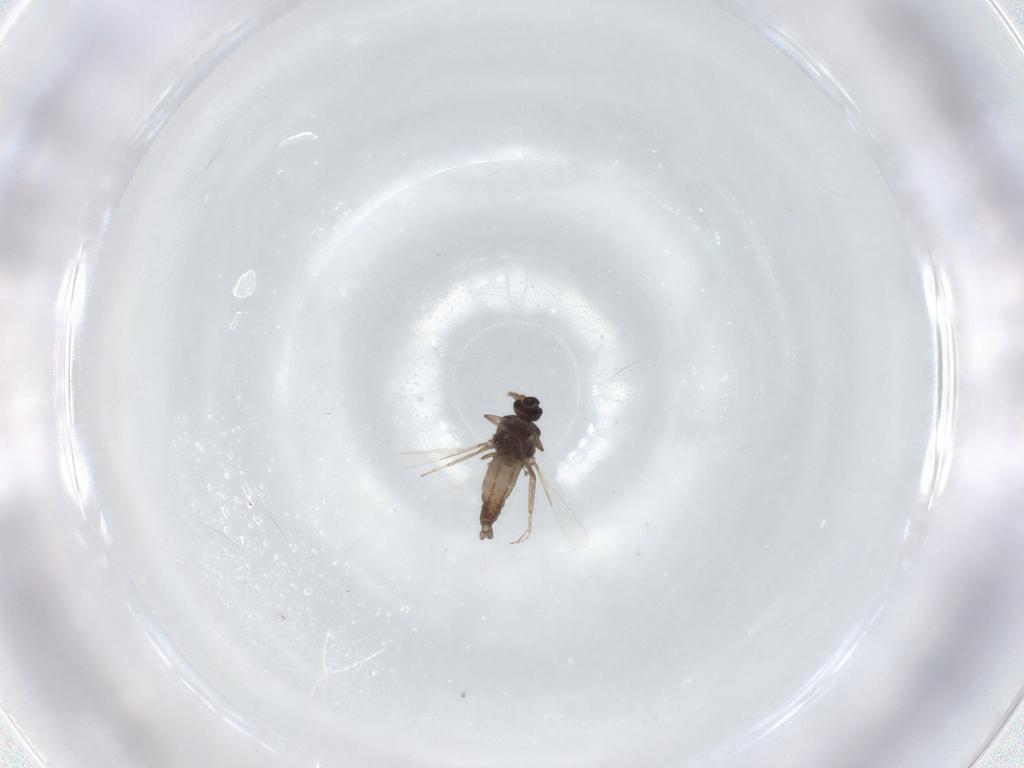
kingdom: Animalia
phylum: Arthropoda
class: Insecta
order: Diptera
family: Ceratopogonidae
